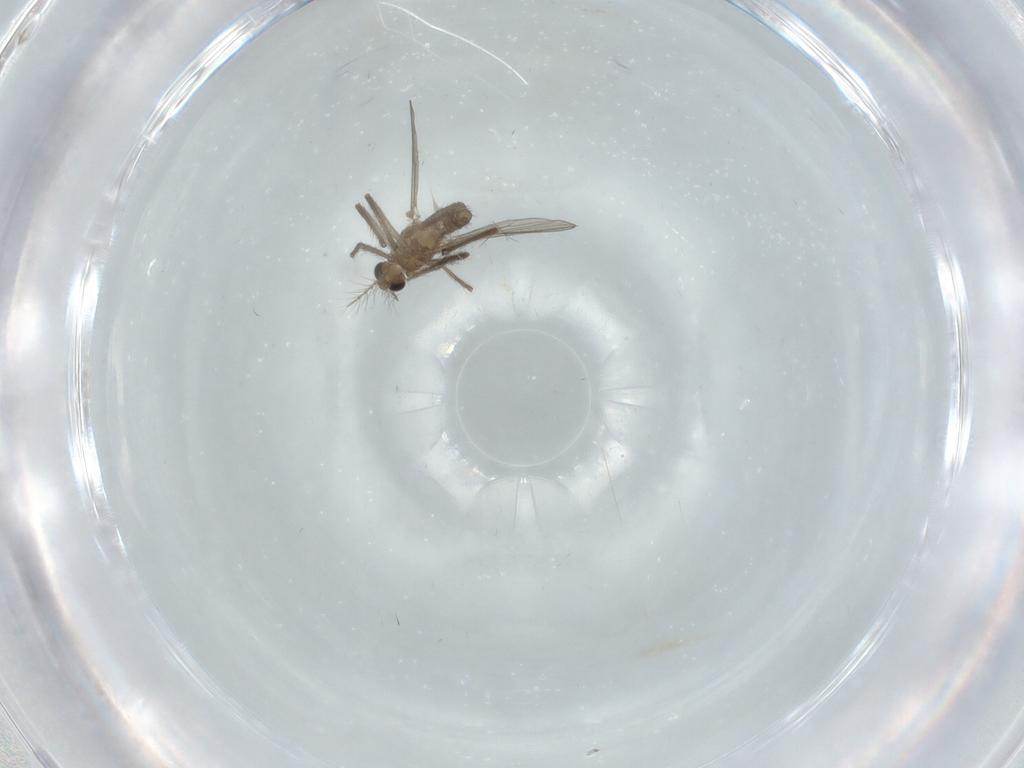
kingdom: Animalia
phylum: Arthropoda
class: Insecta
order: Diptera
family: Chironomidae
